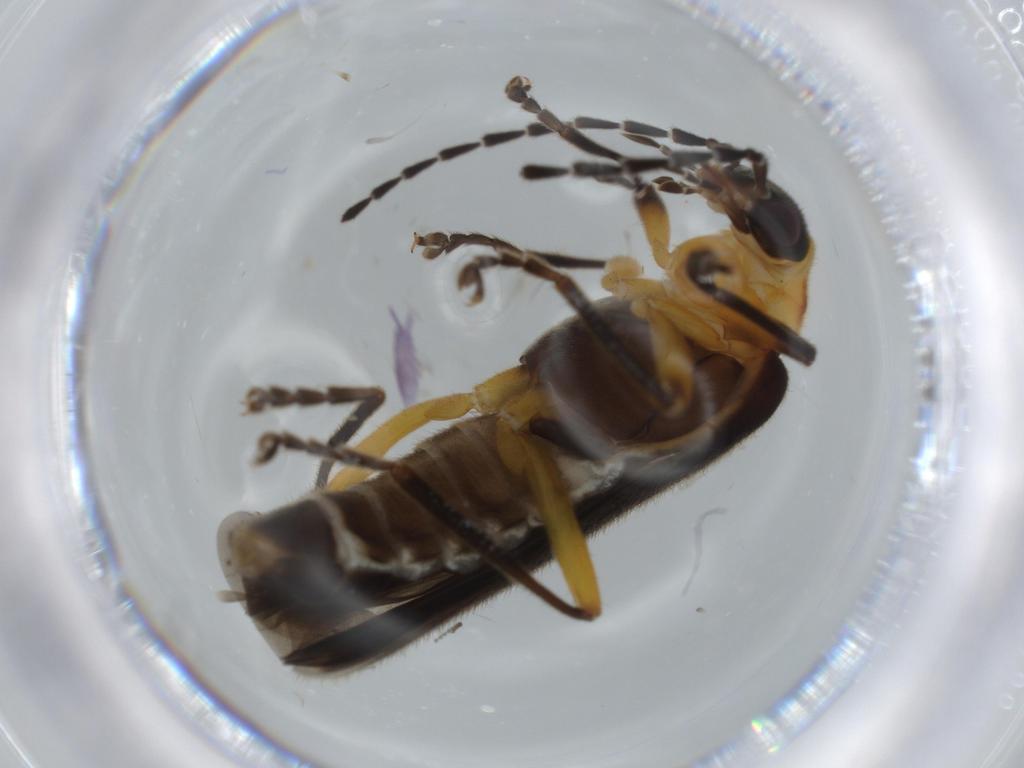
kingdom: Animalia
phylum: Arthropoda
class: Insecta
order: Coleoptera
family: Cantharidae
